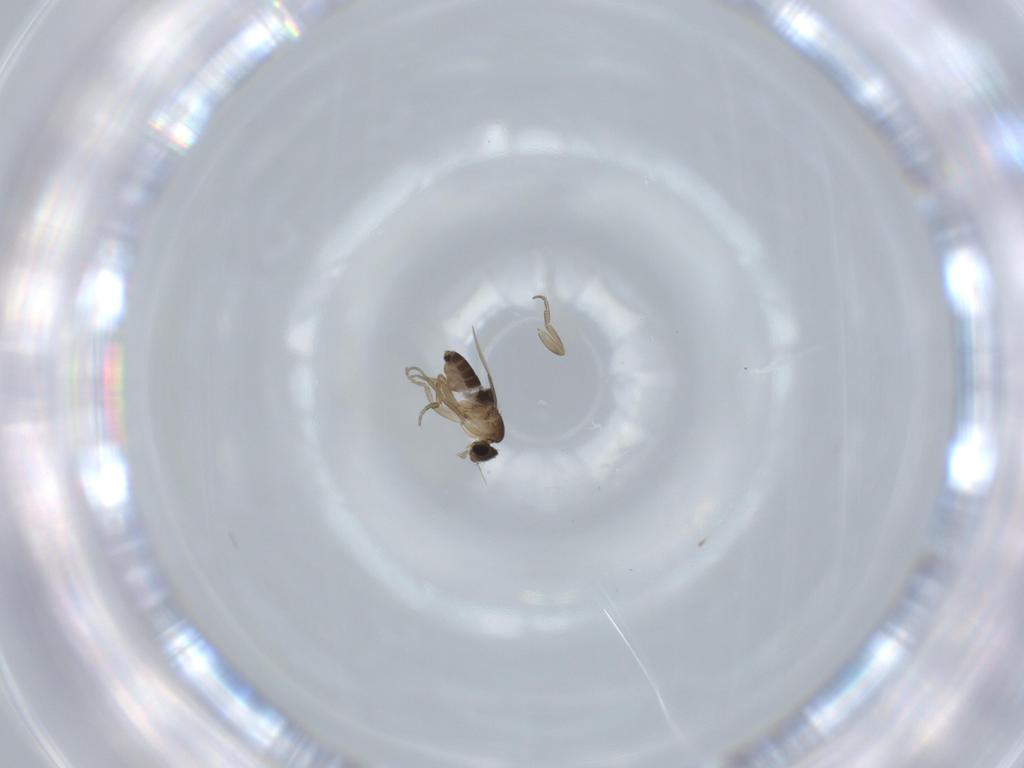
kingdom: Animalia
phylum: Arthropoda
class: Insecta
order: Diptera
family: Phoridae
